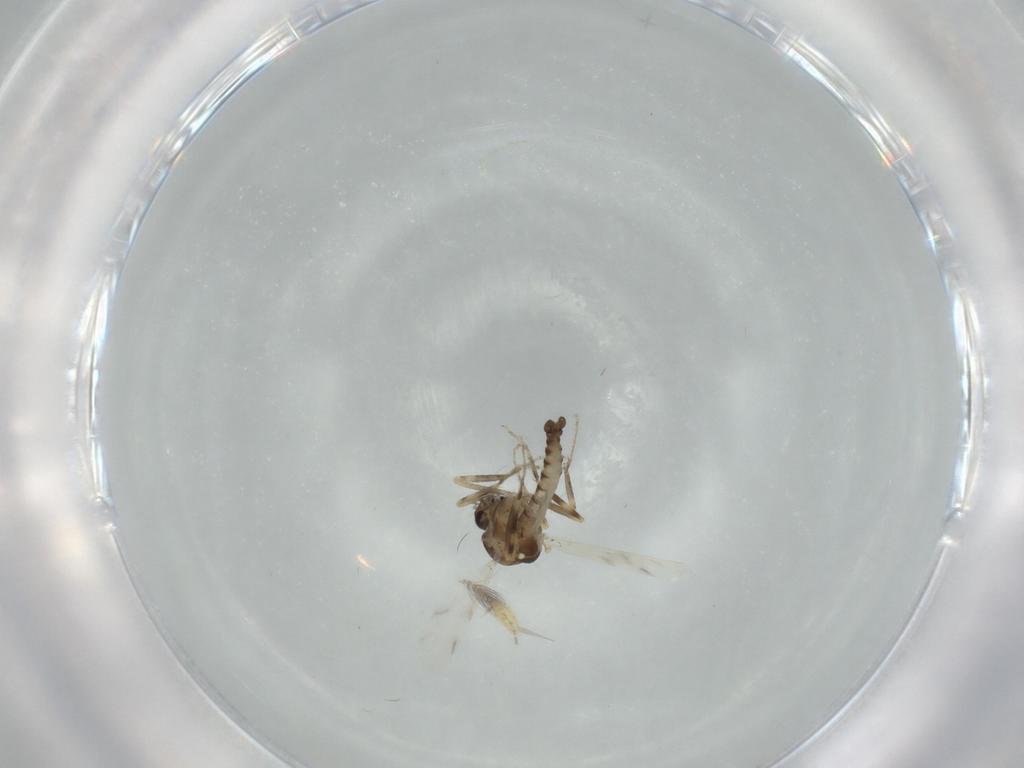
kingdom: Animalia
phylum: Arthropoda
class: Insecta
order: Diptera
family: Ceratopogonidae
